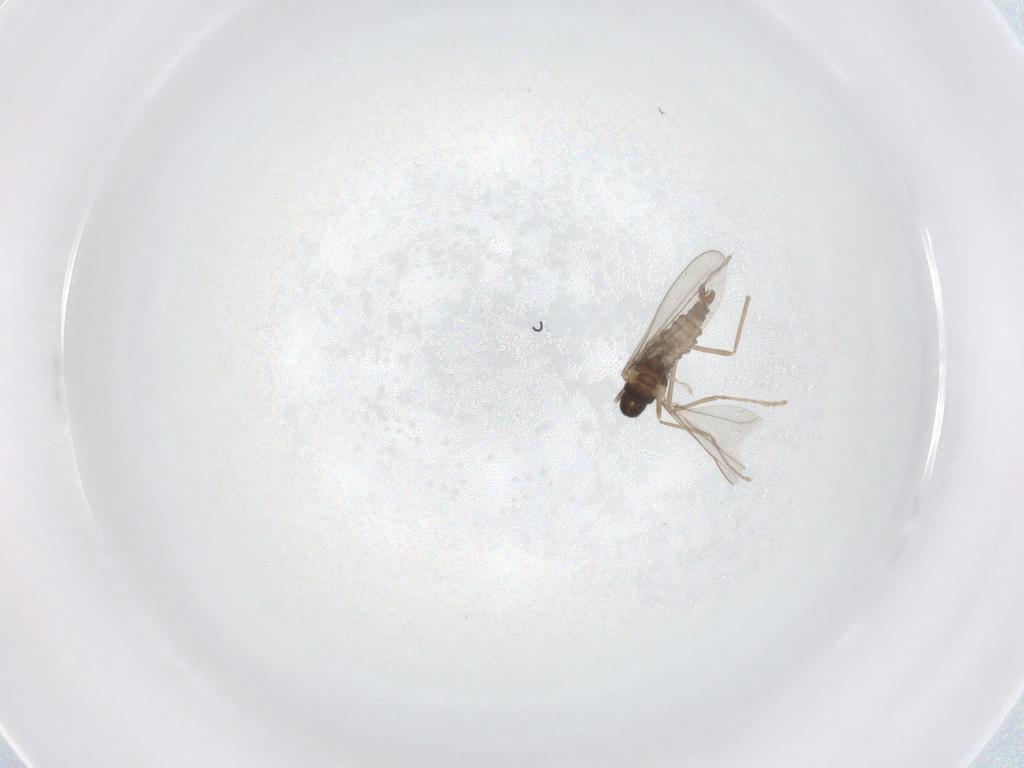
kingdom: Animalia
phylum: Arthropoda
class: Insecta
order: Diptera
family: Cecidomyiidae
